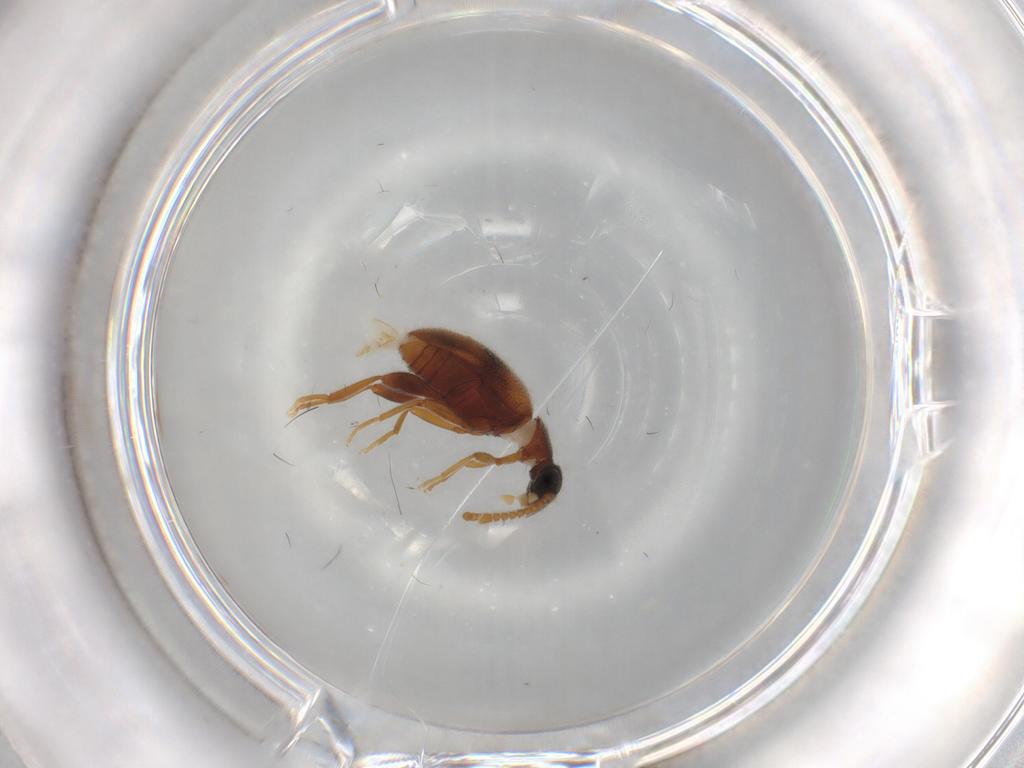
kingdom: Animalia
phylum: Arthropoda
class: Insecta
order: Coleoptera
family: Aderidae
